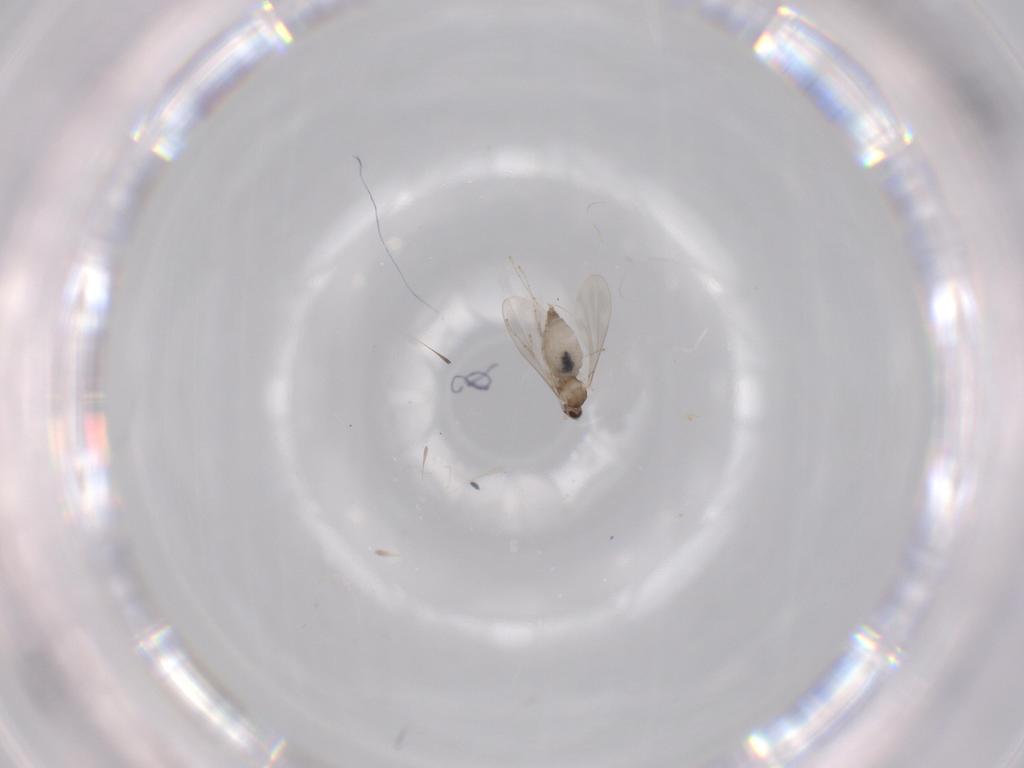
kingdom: Animalia
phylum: Arthropoda
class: Insecta
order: Diptera
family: Cecidomyiidae
